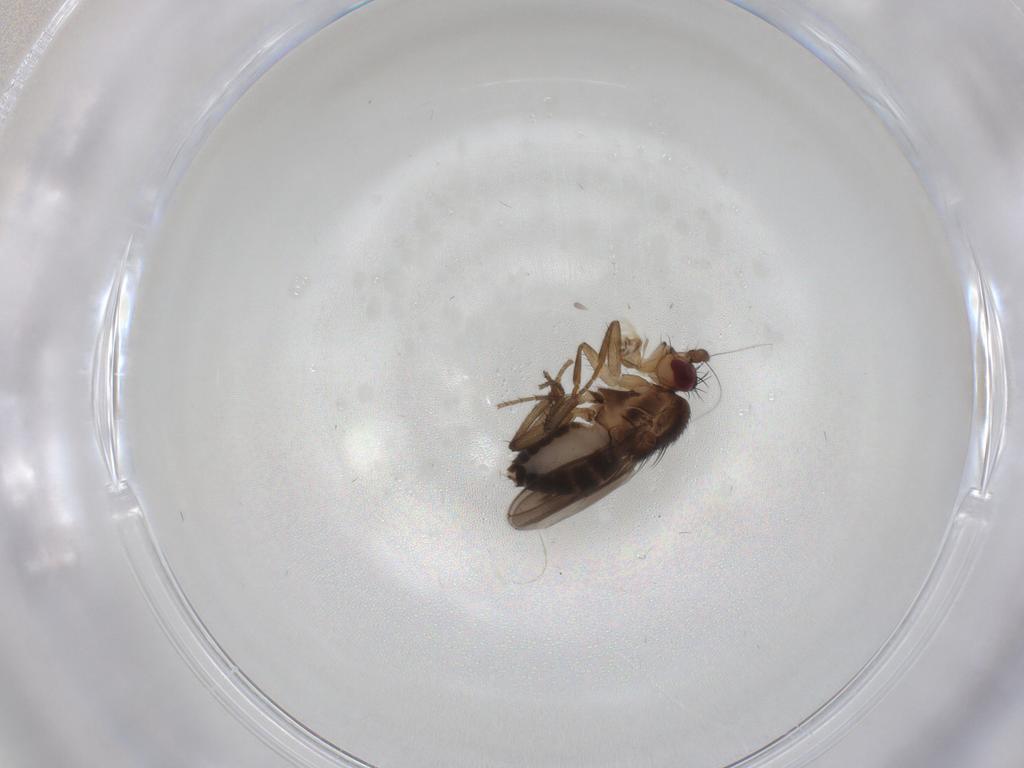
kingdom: Animalia
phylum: Arthropoda
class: Insecta
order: Diptera
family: Sphaeroceridae
